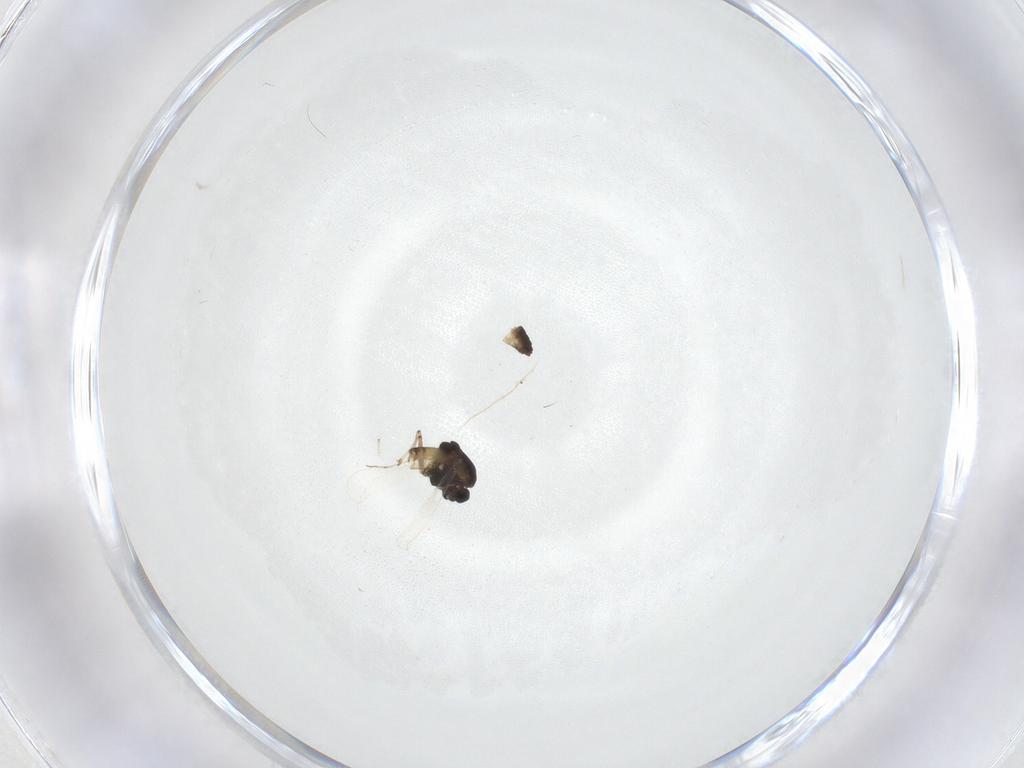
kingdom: Animalia
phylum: Arthropoda
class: Insecta
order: Diptera
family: Chironomidae
